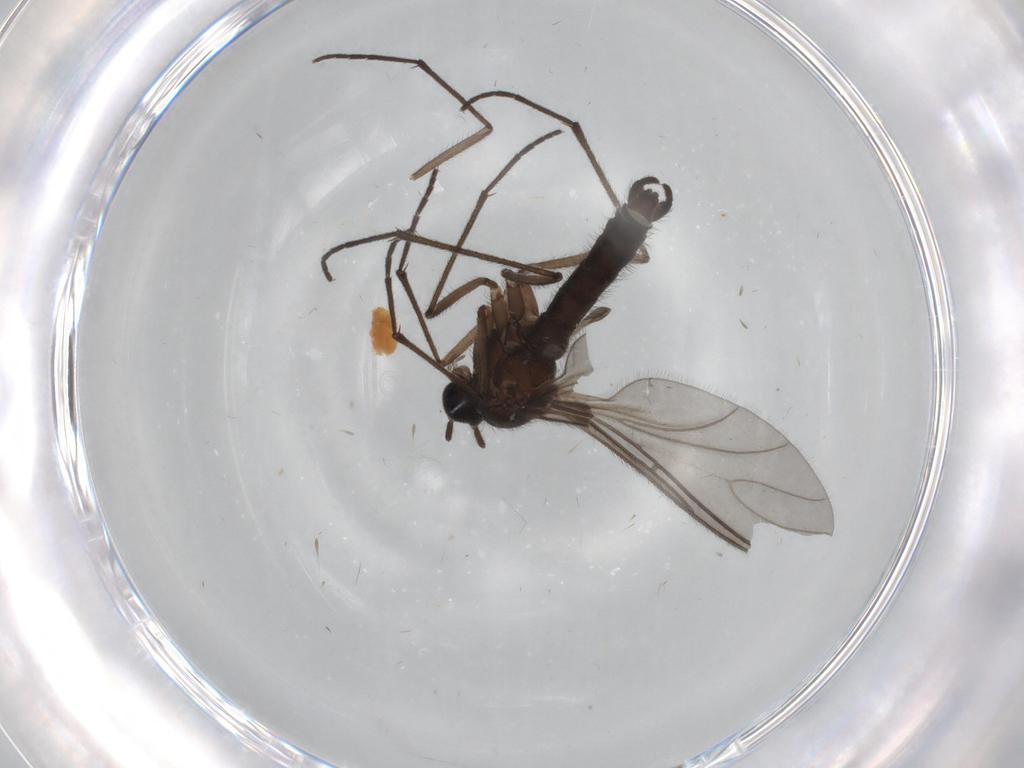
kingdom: Animalia
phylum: Arthropoda
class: Insecta
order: Diptera
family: Sciaridae
